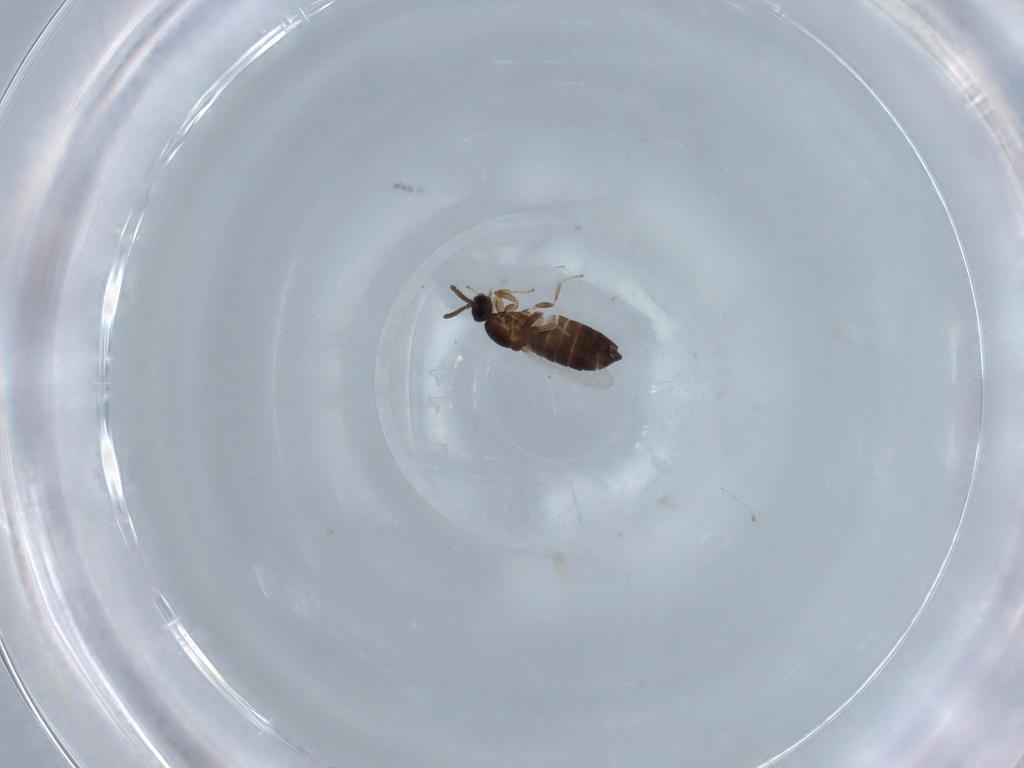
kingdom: Animalia
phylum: Arthropoda
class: Insecta
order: Diptera
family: Scatopsidae
